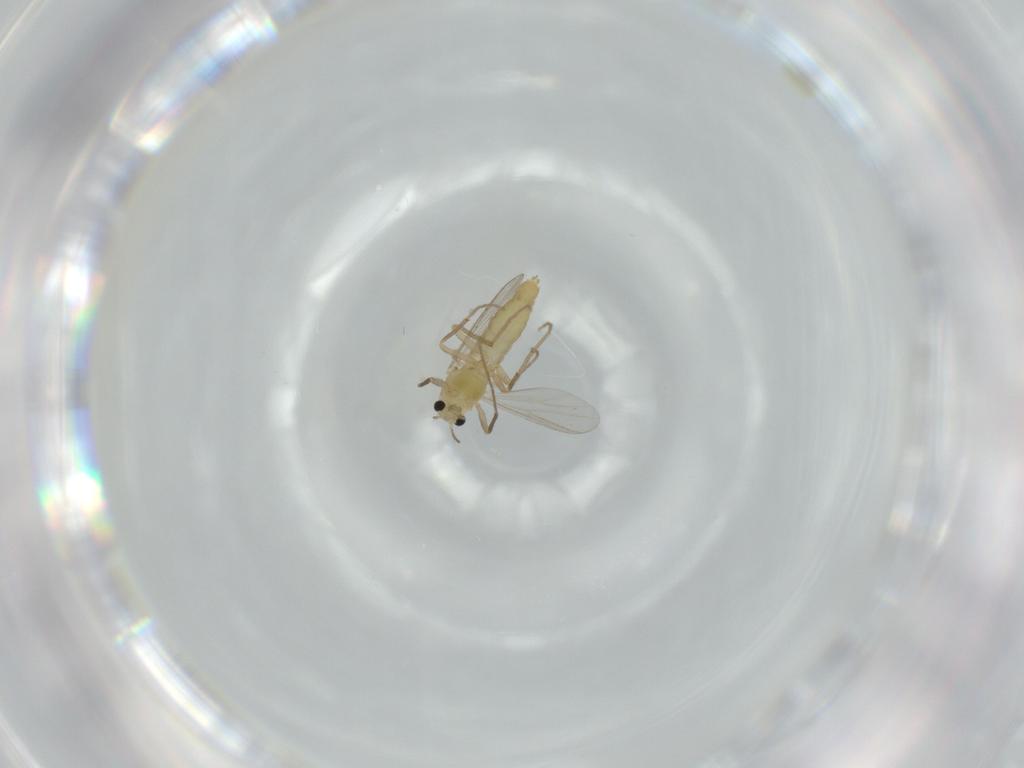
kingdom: Animalia
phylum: Arthropoda
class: Insecta
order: Diptera
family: Chironomidae
